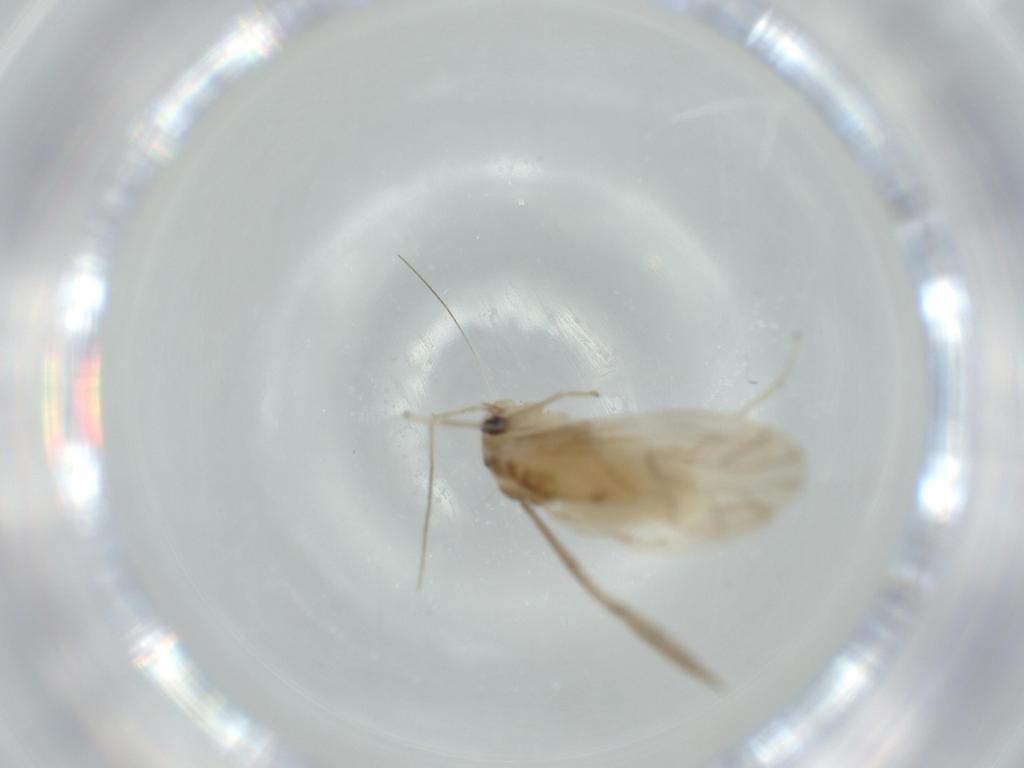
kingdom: Animalia
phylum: Arthropoda
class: Insecta
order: Psocodea
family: Caeciliusidae
